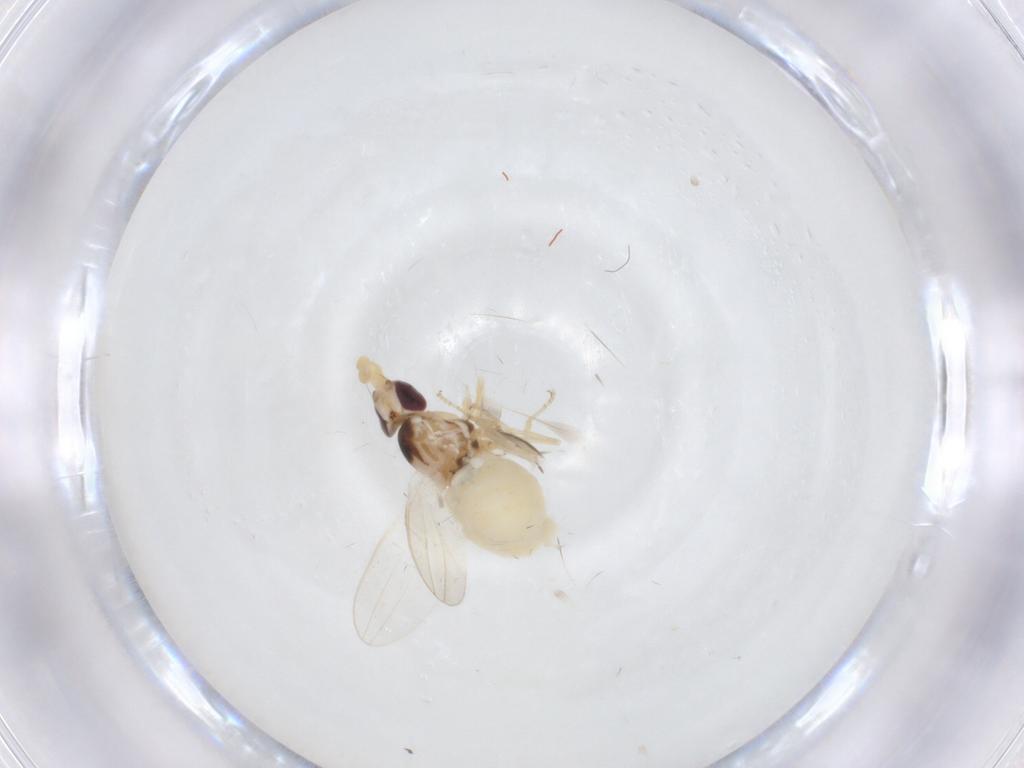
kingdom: Animalia
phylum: Arthropoda
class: Insecta
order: Diptera
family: Chloropidae
